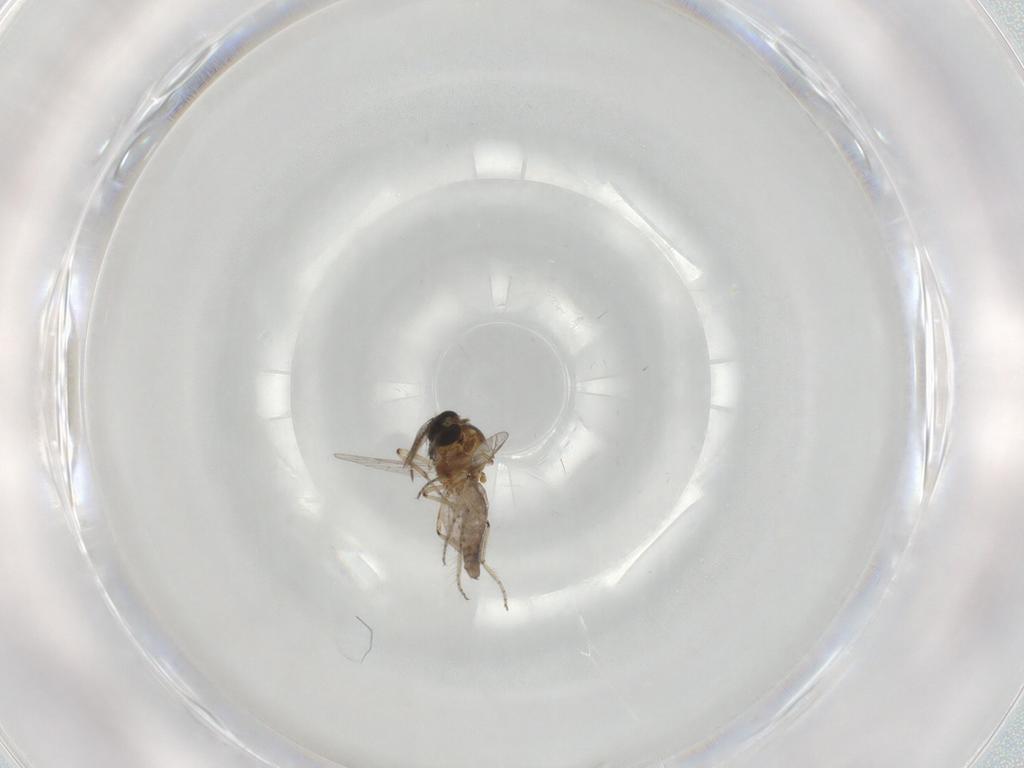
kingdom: Animalia
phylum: Arthropoda
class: Insecta
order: Diptera
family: Ceratopogonidae
